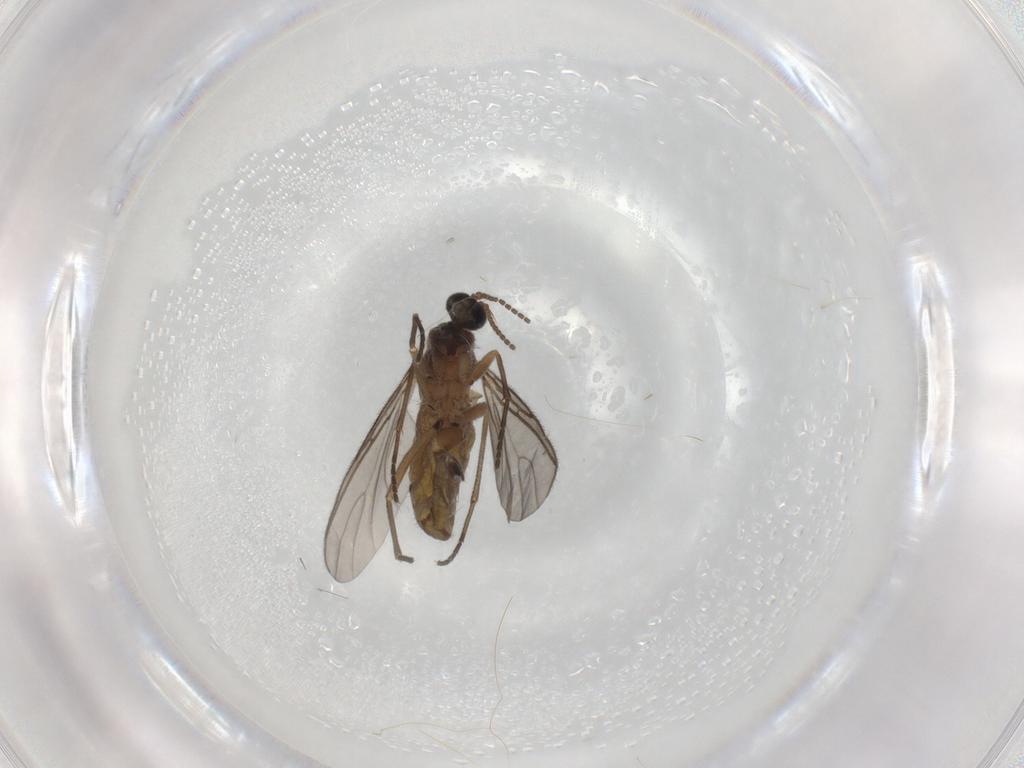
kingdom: Animalia
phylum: Arthropoda
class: Insecta
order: Diptera
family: Sciaridae
